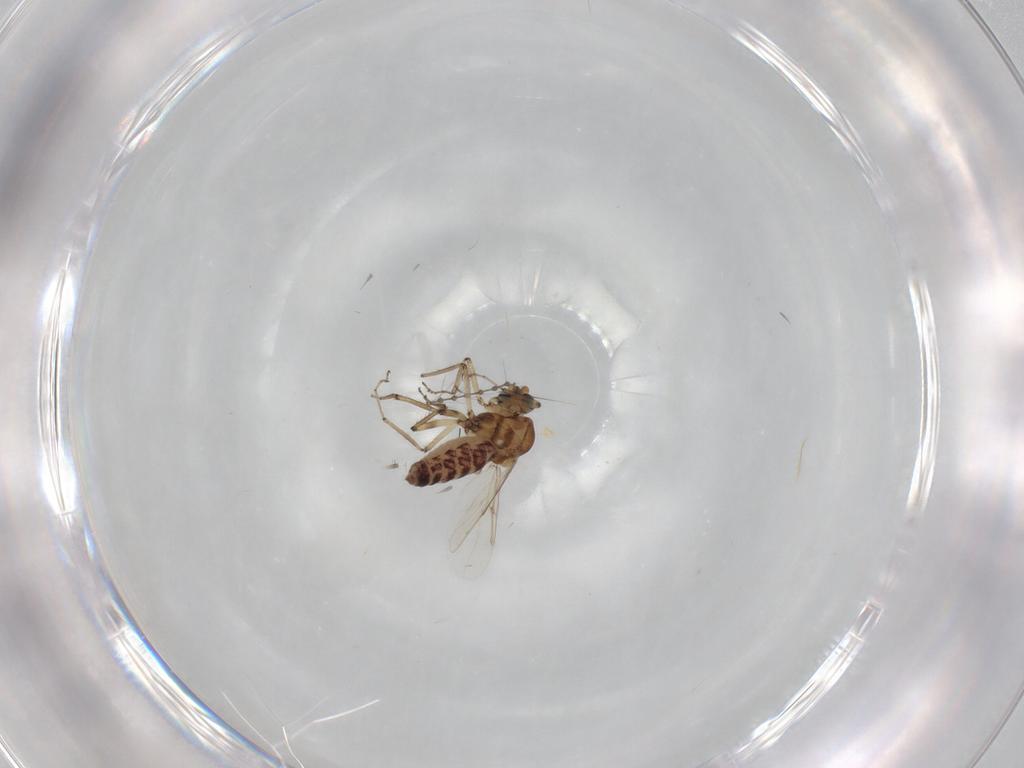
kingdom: Animalia
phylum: Arthropoda
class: Insecta
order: Diptera
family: Ceratopogonidae
